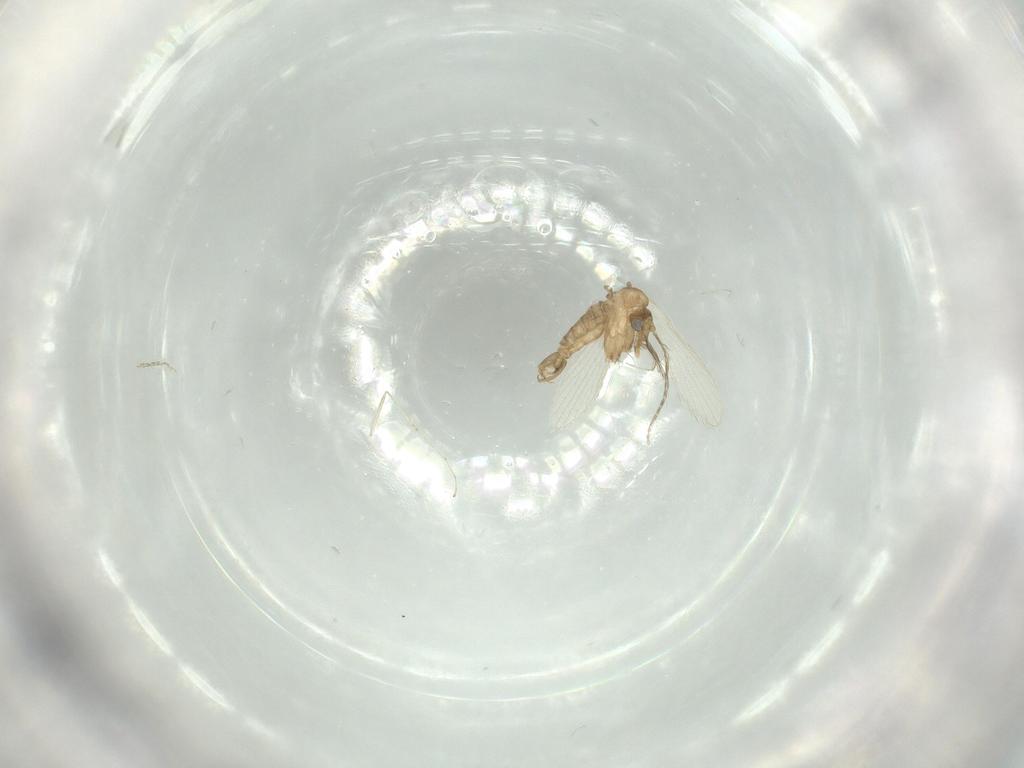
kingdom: Animalia
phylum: Arthropoda
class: Insecta
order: Diptera
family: Psychodidae
